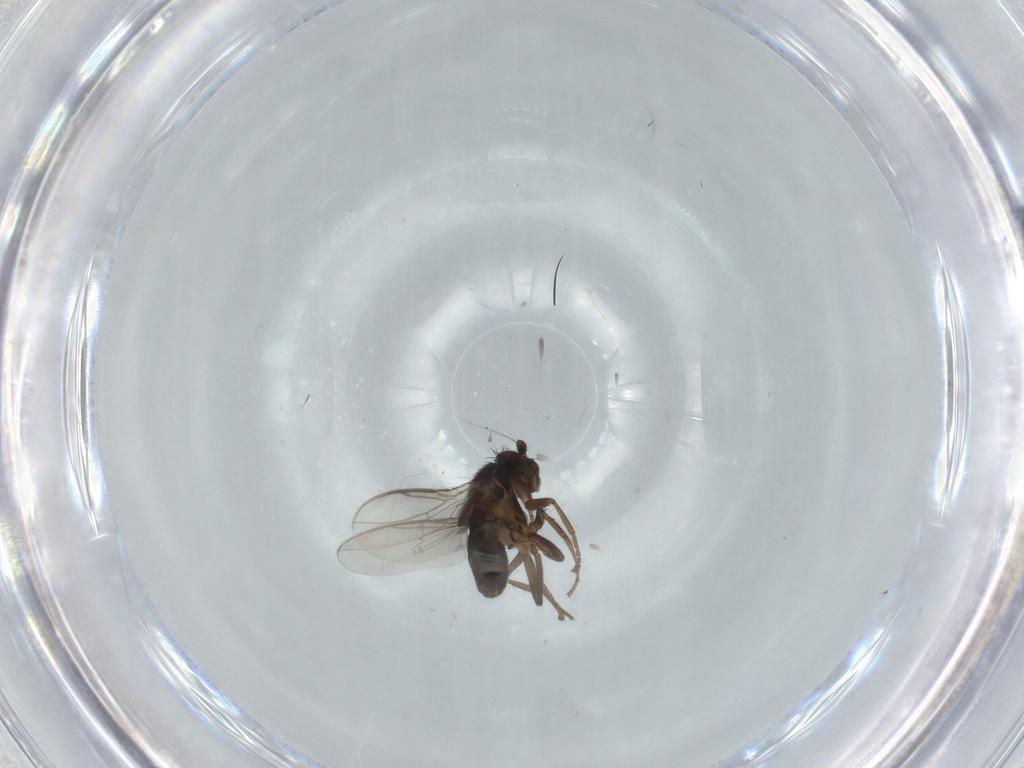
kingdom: Animalia
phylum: Arthropoda
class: Insecta
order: Diptera
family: Sphaeroceridae
